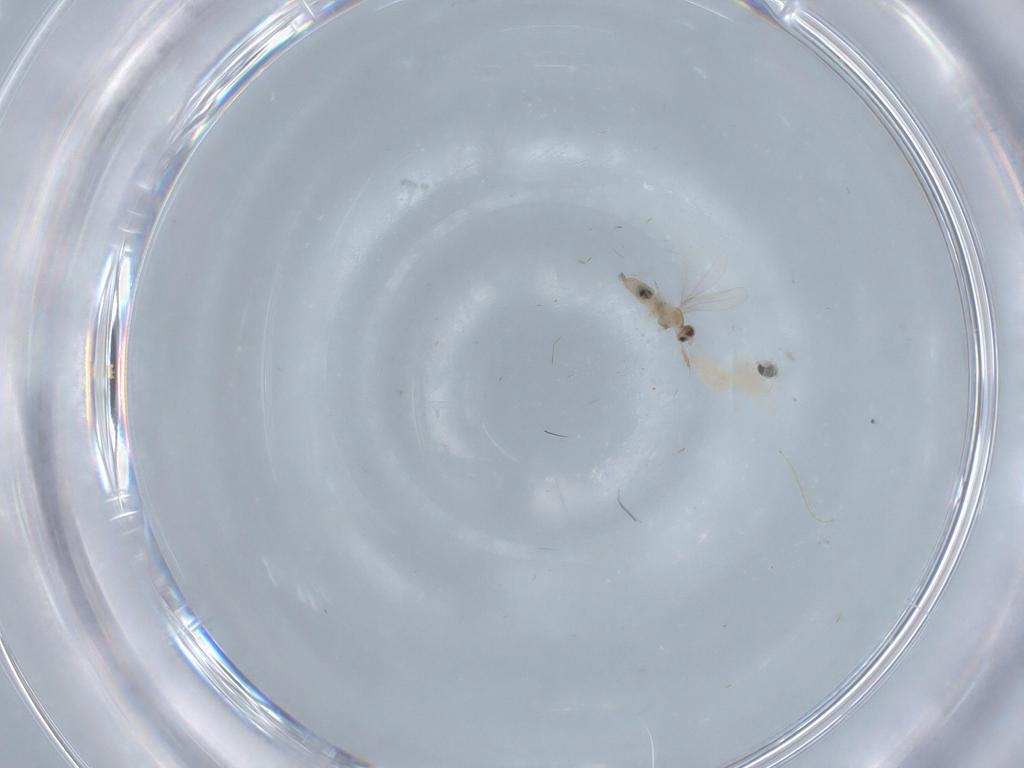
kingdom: Animalia
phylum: Arthropoda
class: Insecta
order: Diptera
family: Cecidomyiidae
